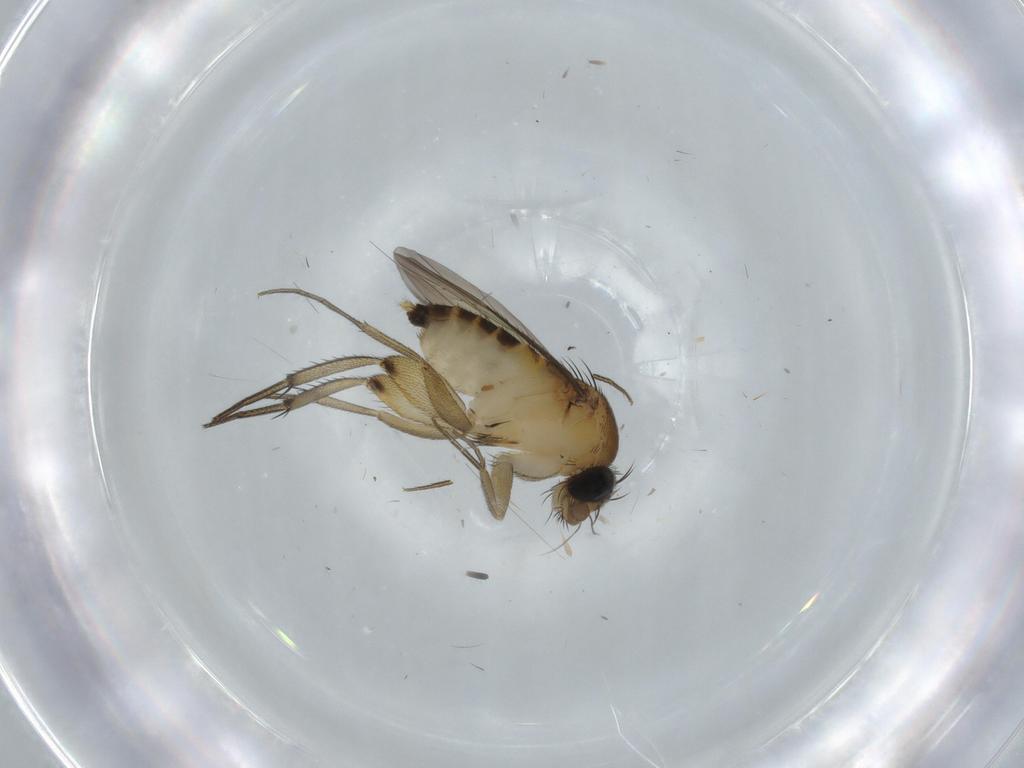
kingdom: Animalia
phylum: Arthropoda
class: Insecta
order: Diptera
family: Phoridae
